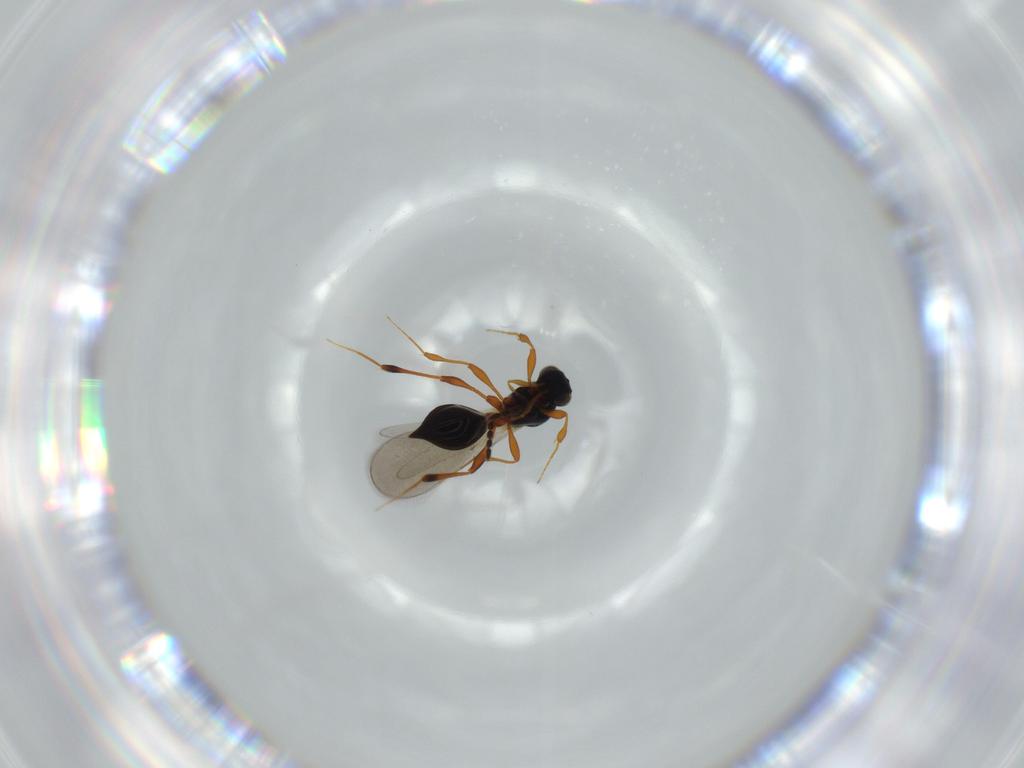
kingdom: Animalia
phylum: Arthropoda
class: Insecta
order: Hymenoptera
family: Platygastridae
